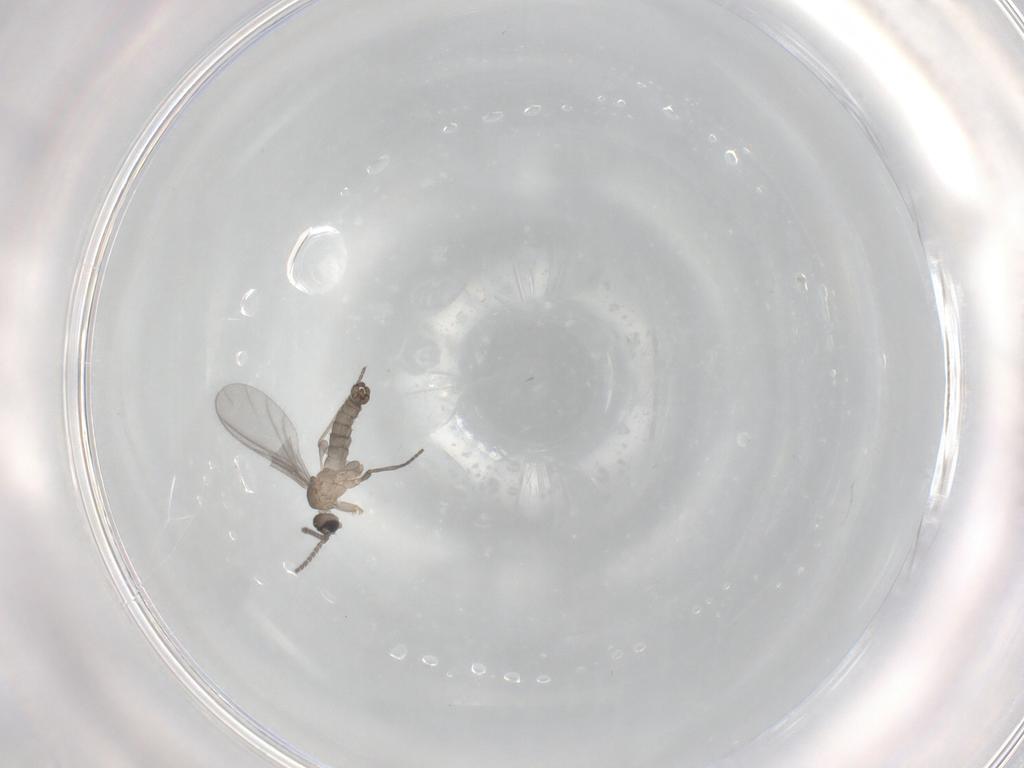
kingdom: Animalia
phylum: Arthropoda
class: Insecta
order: Diptera
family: Sciaridae
